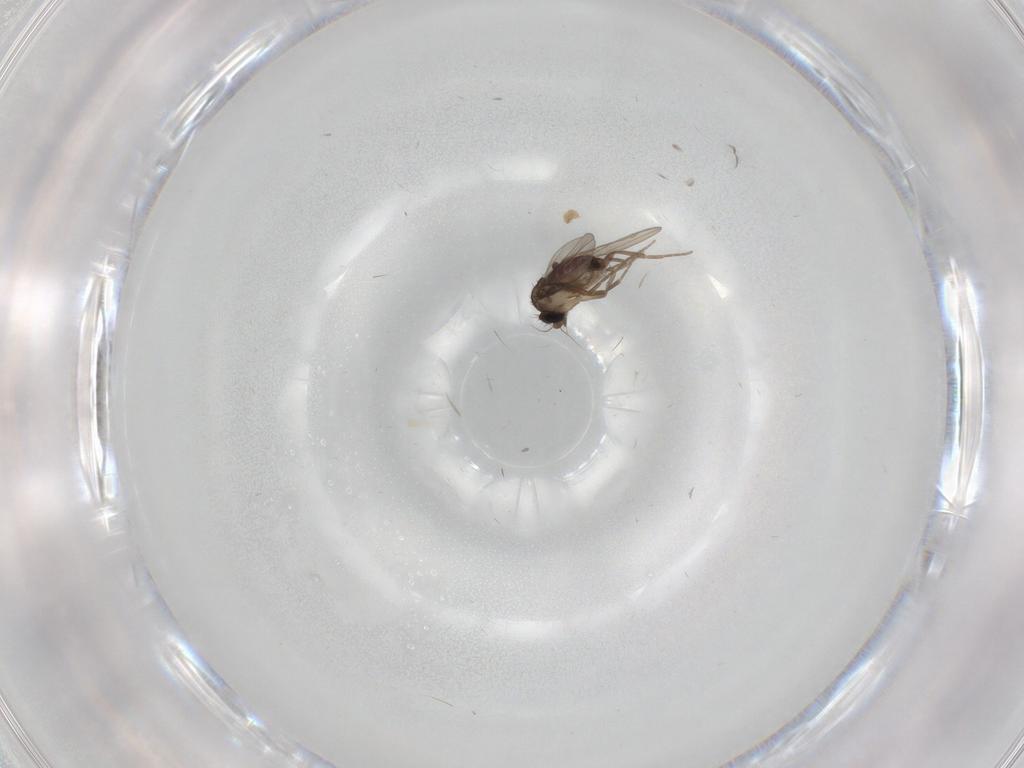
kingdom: Animalia
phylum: Arthropoda
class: Insecta
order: Diptera
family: Phoridae
